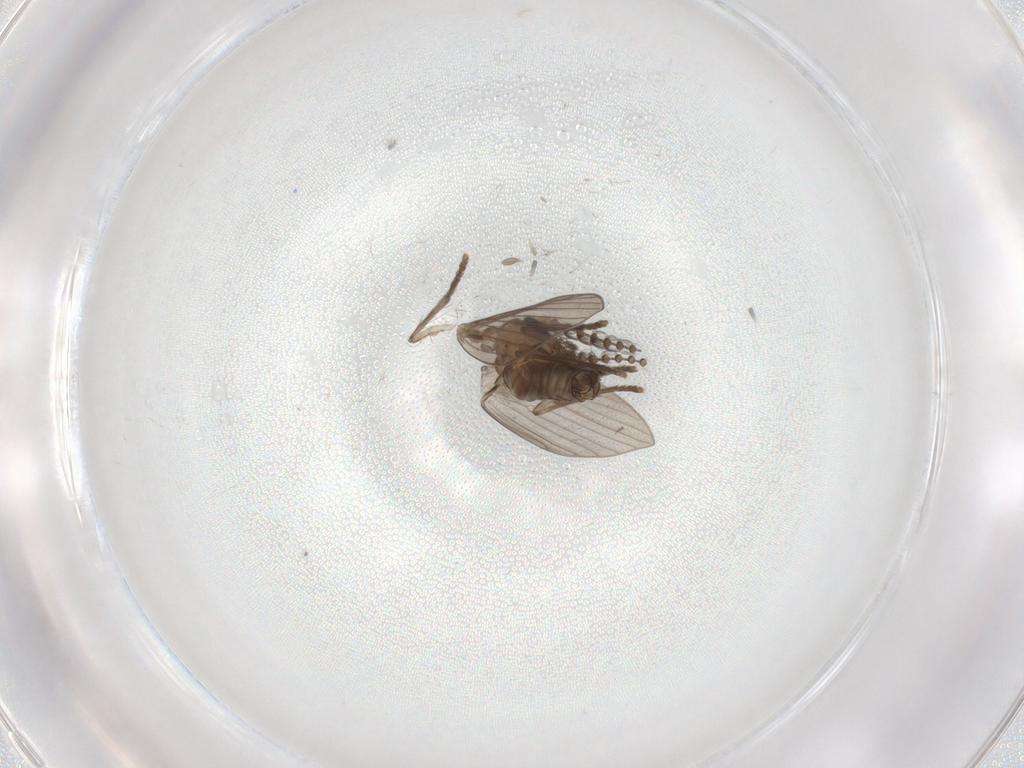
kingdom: Animalia
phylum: Arthropoda
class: Insecta
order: Diptera
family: Psychodidae
